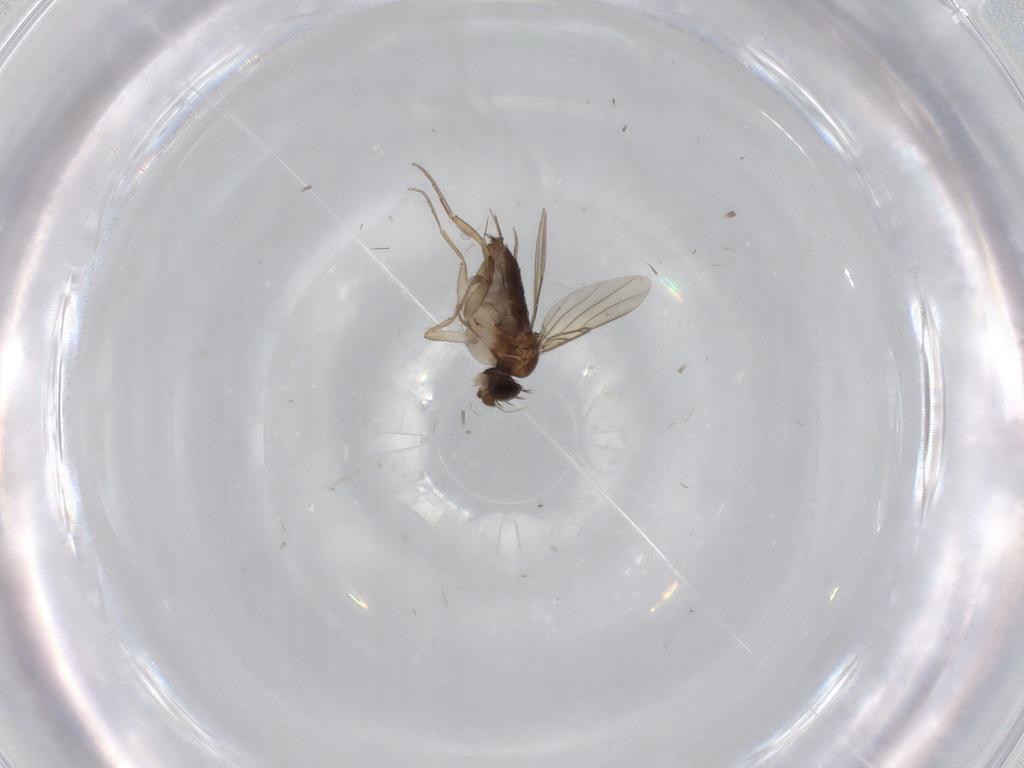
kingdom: Animalia
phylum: Arthropoda
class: Insecta
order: Diptera
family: Phoridae
